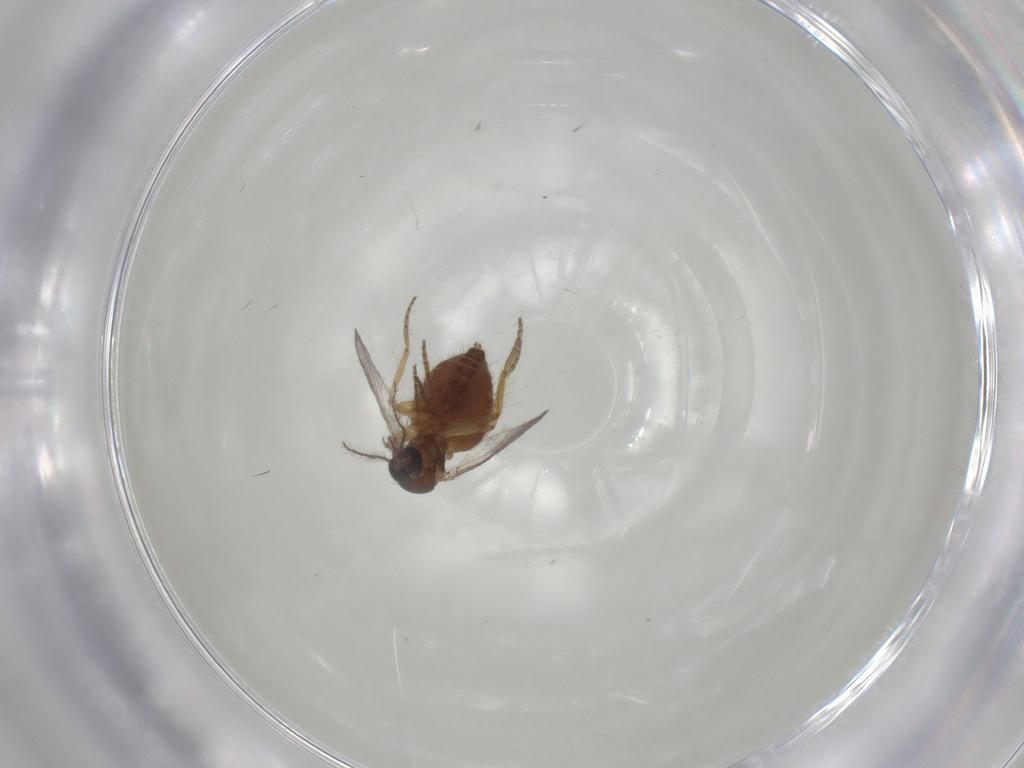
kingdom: Animalia
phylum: Arthropoda
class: Insecta
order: Diptera
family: Ceratopogonidae
